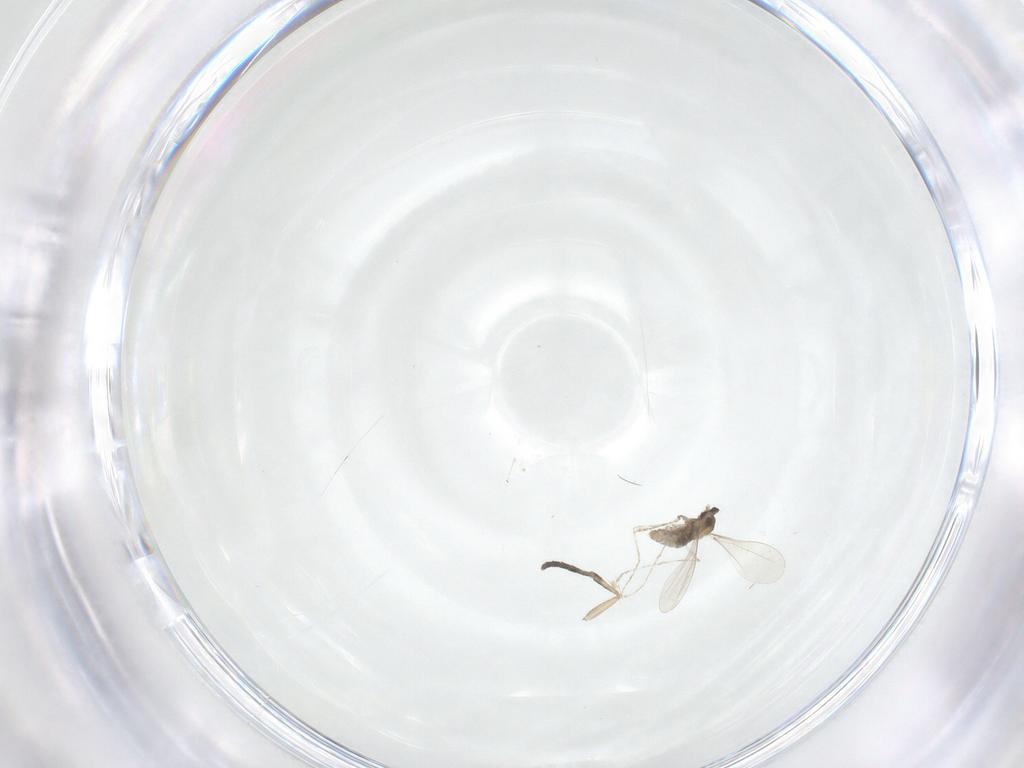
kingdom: Animalia
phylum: Arthropoda
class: Insecta
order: Diptera
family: Cecidomyiidae
